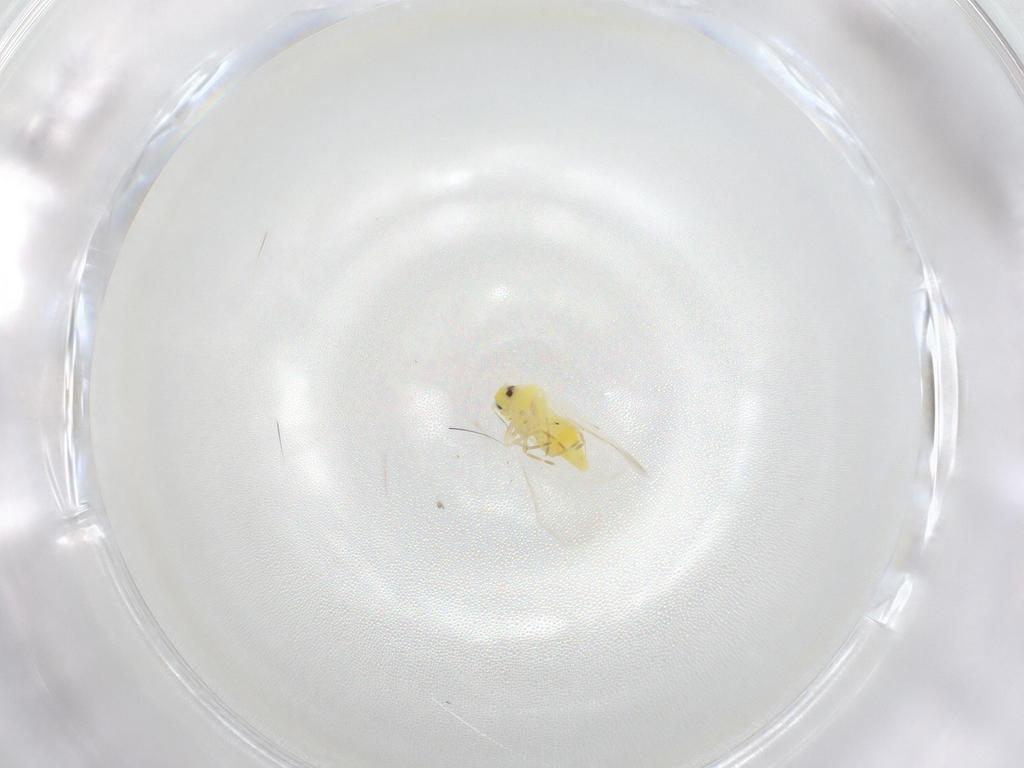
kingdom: Animalia
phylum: Arthropoda
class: Insecta
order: Hemiptera
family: Aleyrodidae
